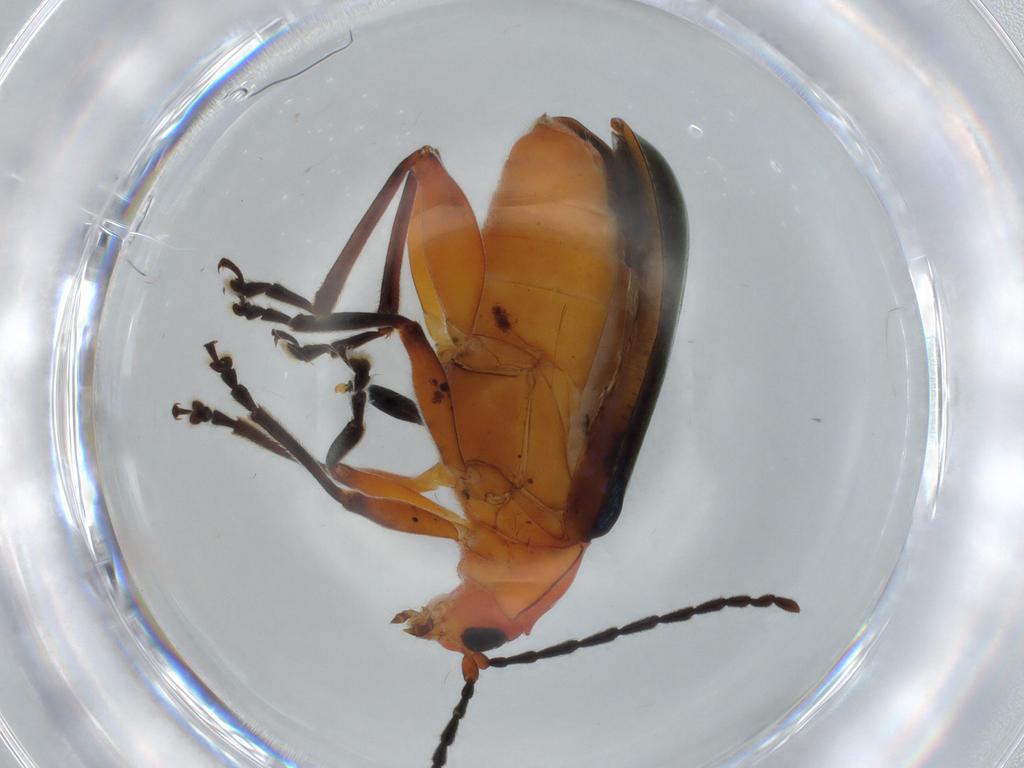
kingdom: Animalia
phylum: Arthropoda
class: Insecta
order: Coleoptera
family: Chrysomelidae
